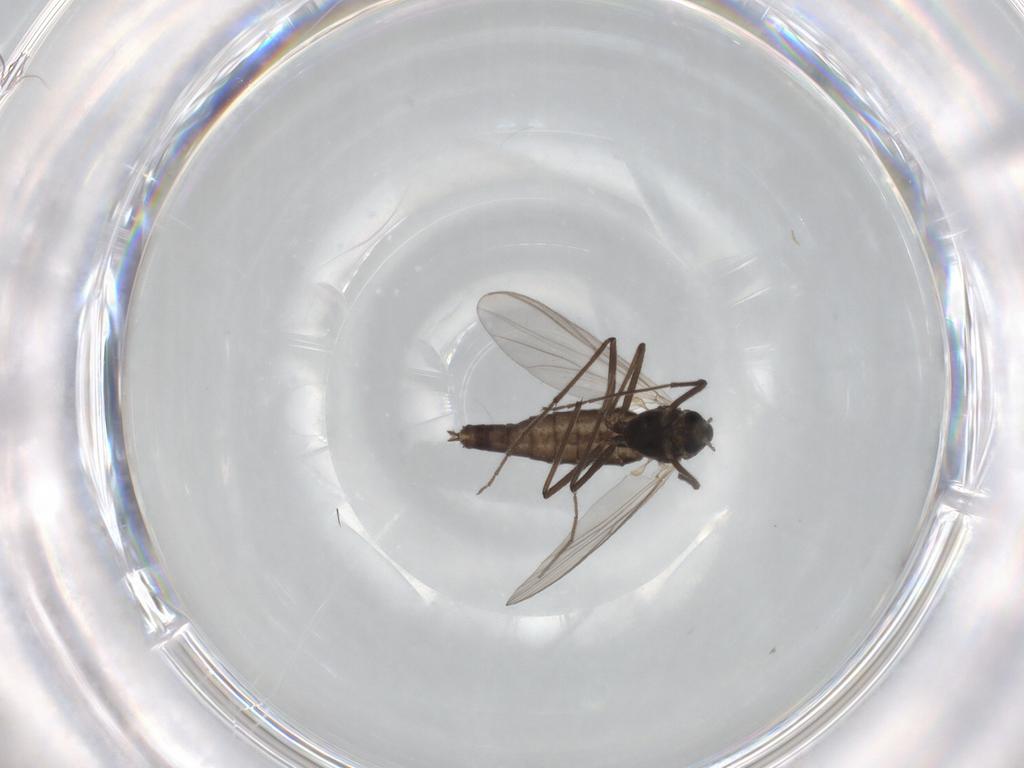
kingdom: Animalia
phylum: Arthropoda
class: Insecta
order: Diptera
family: Chironomidae
